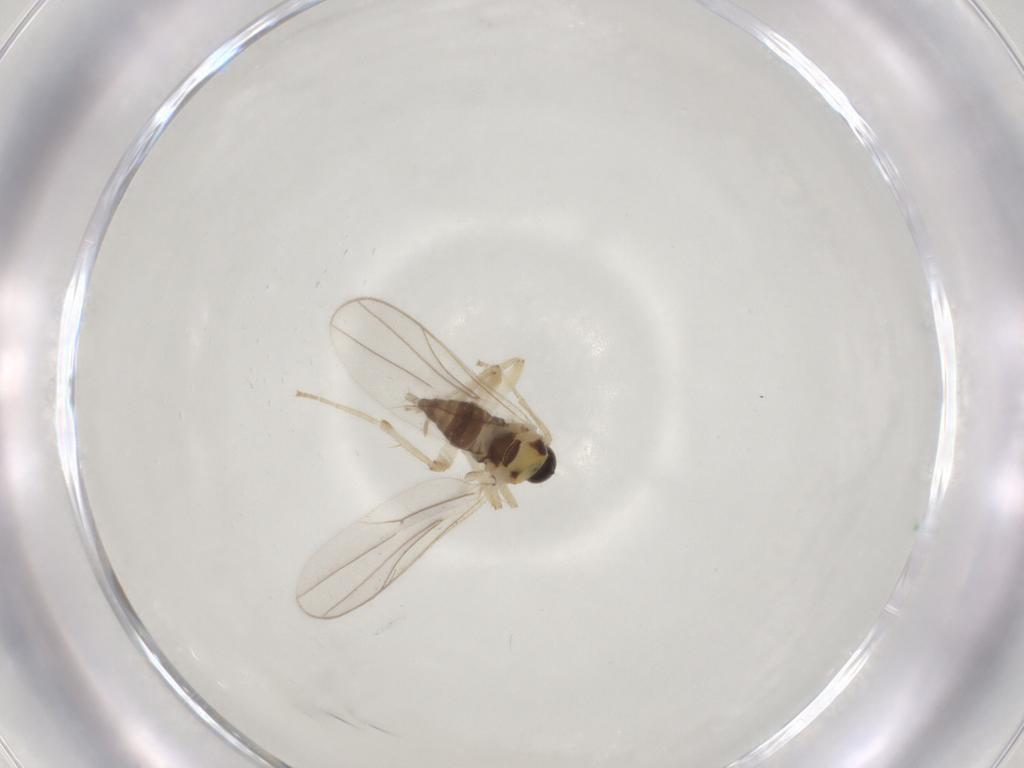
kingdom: Animalia
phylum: Arthropoda
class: Insecta
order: Diptera
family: Hybotidae
